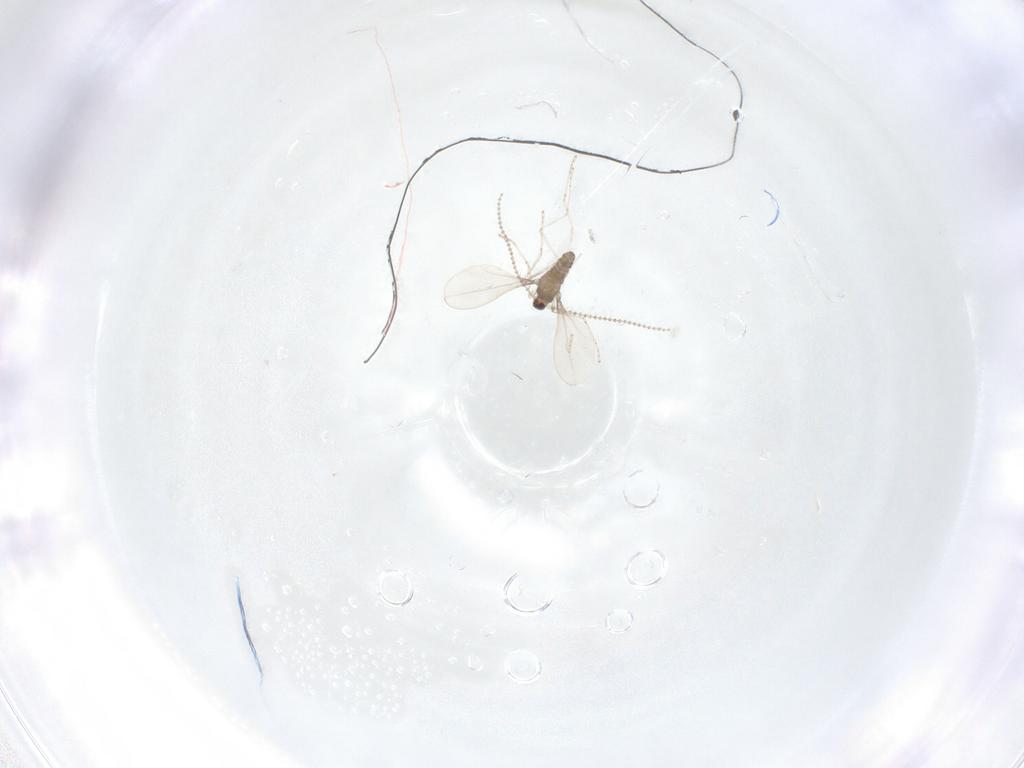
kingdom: Animalia
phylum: Arthropoda
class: Insecta
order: Diptera
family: Cecidomyiidae
